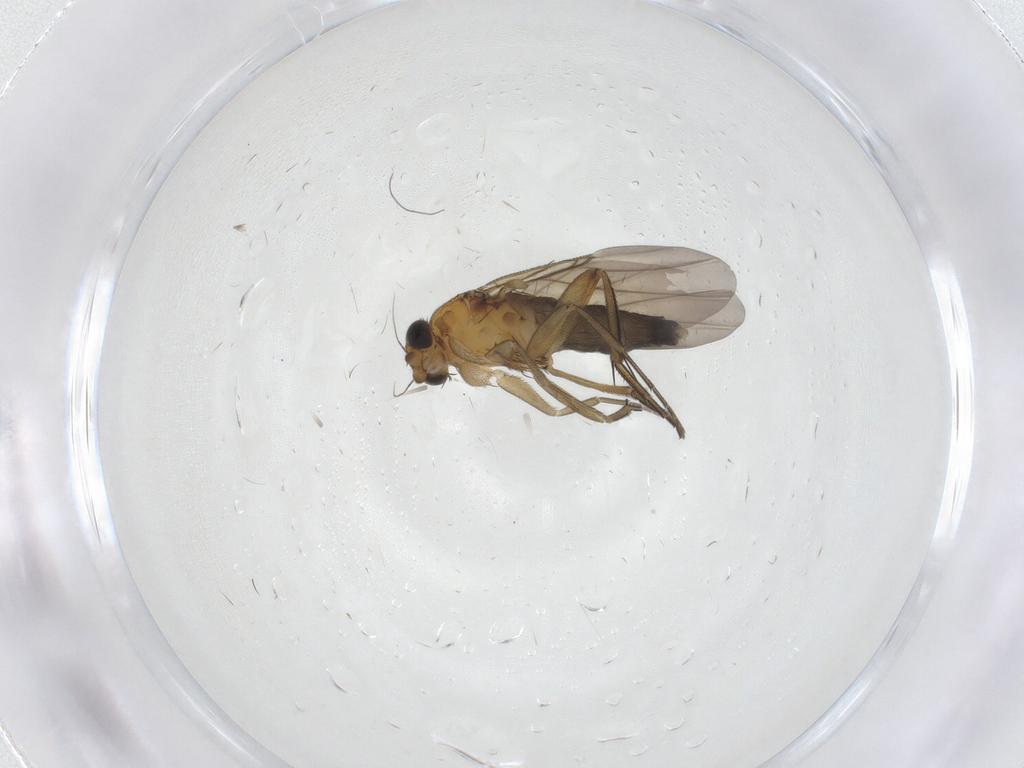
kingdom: Animalia
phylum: Arthropoda
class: Insecta
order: Diptera
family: Phoridae
